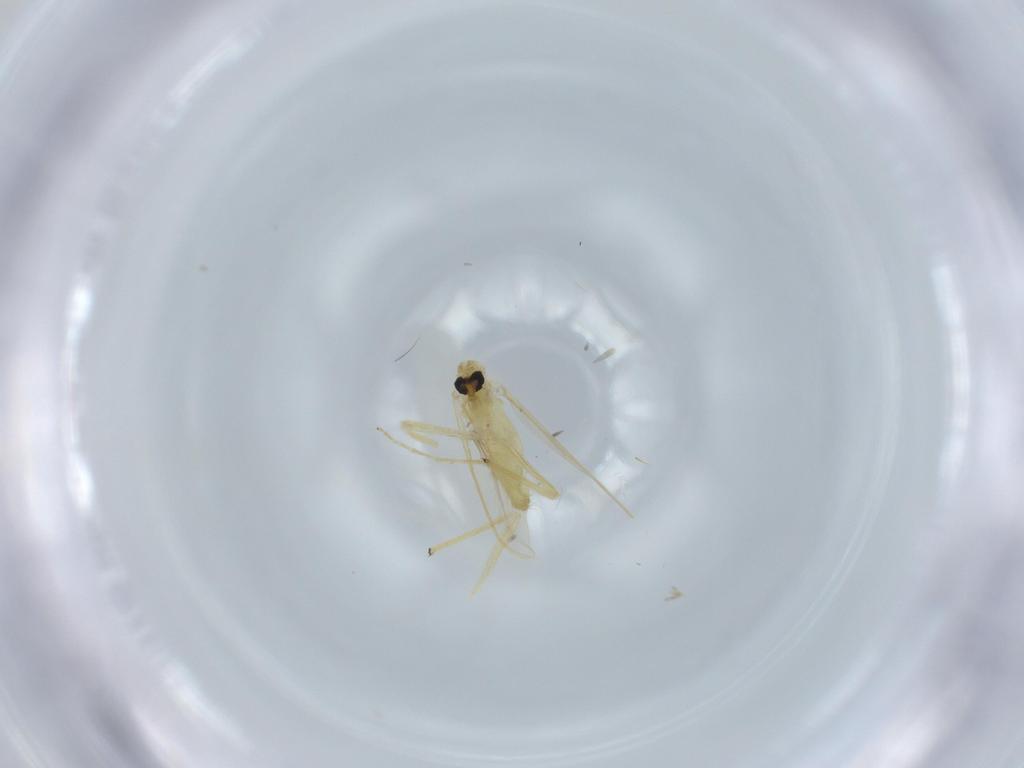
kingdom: Animalia
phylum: Arthropoda
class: Insecta
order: Diptera
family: Chironomidae
